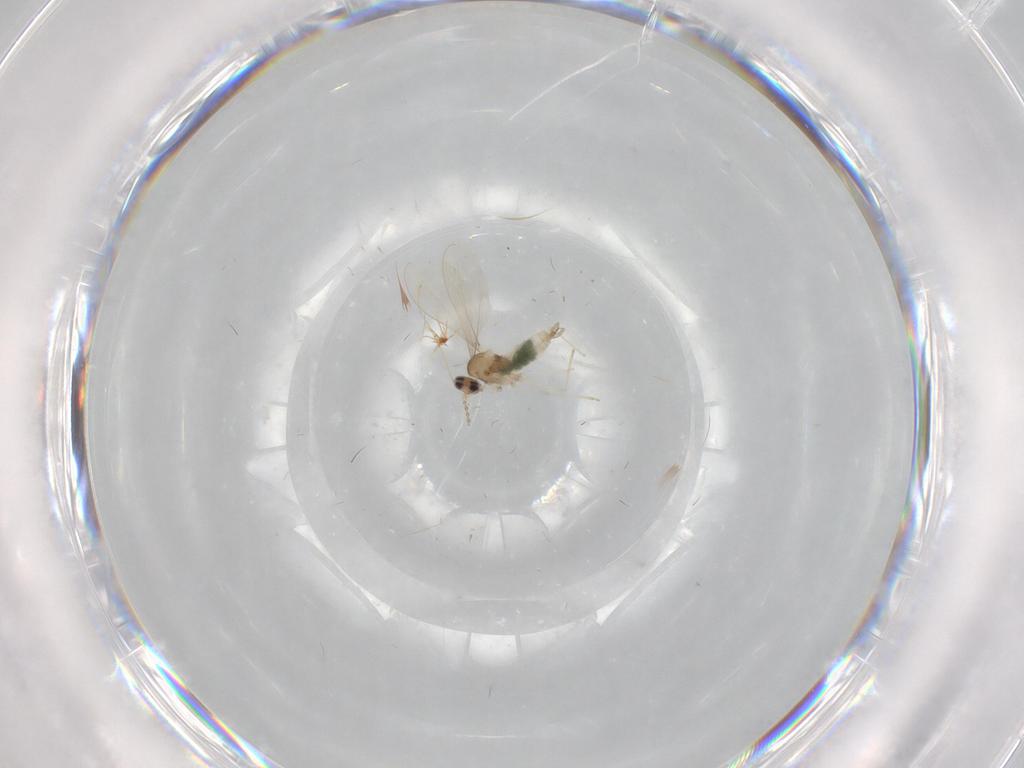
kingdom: Animalia
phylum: Arthropoda
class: Insecta
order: Diptera
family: Cecidomyiidae
